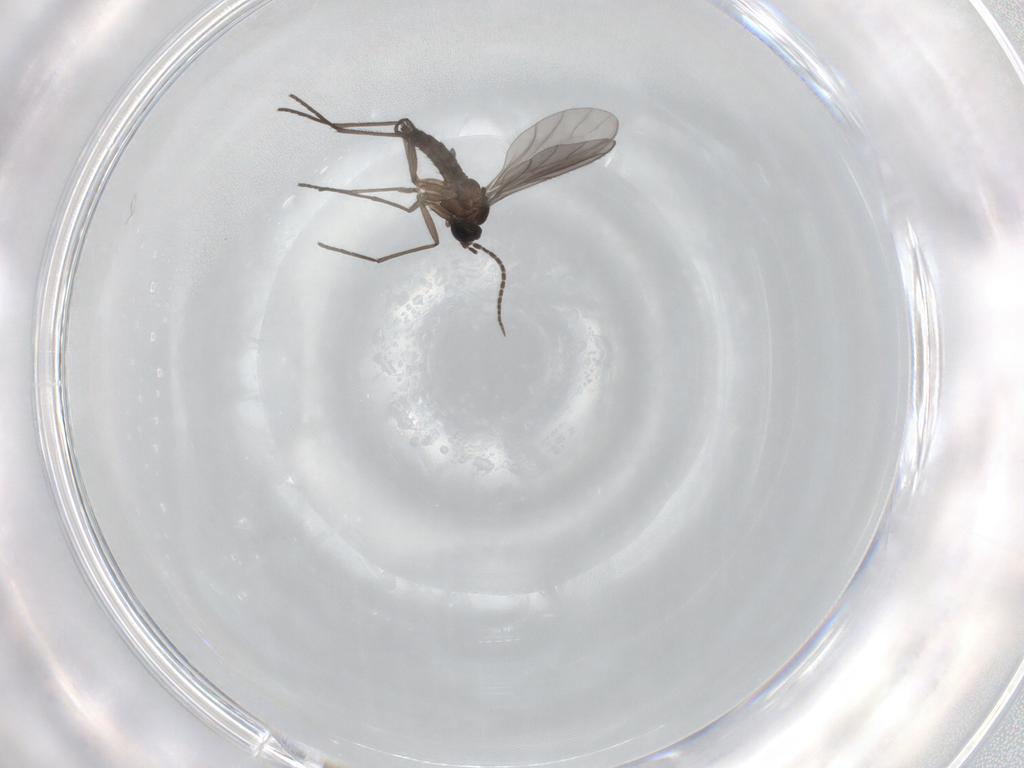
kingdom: Animalia
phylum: Arthropoda
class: Insecta
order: Diptera
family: Sciaridae
